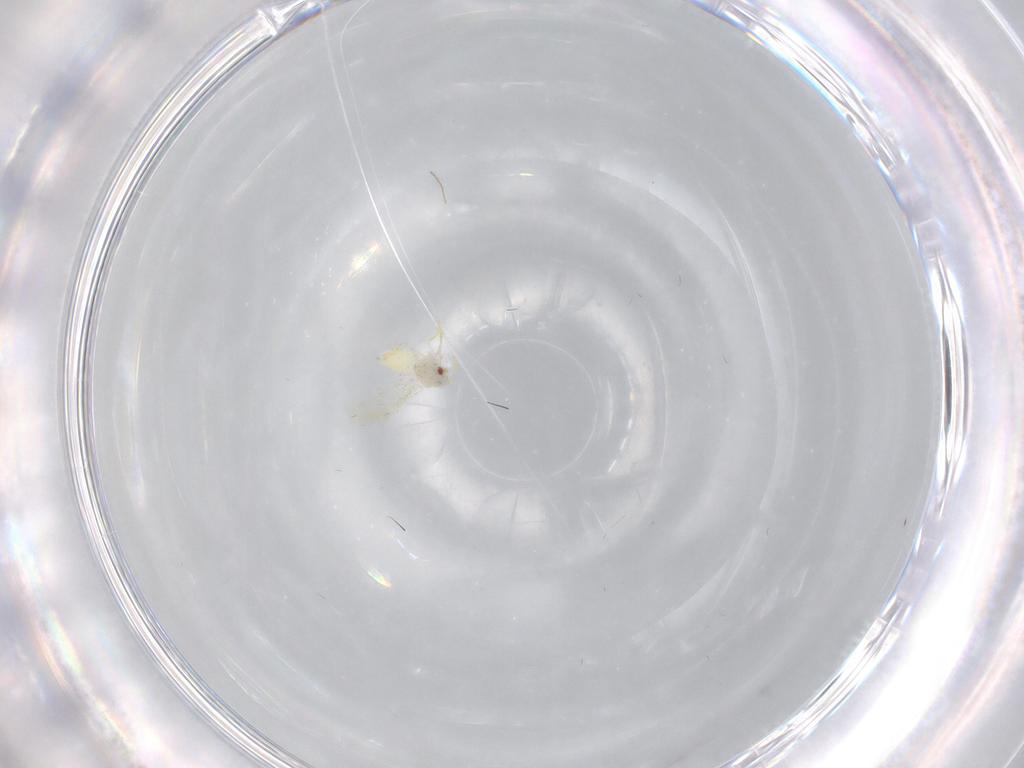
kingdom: Animalia
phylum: Arthropoda
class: Insecta
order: Hemiptera
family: Aleyrodidae
